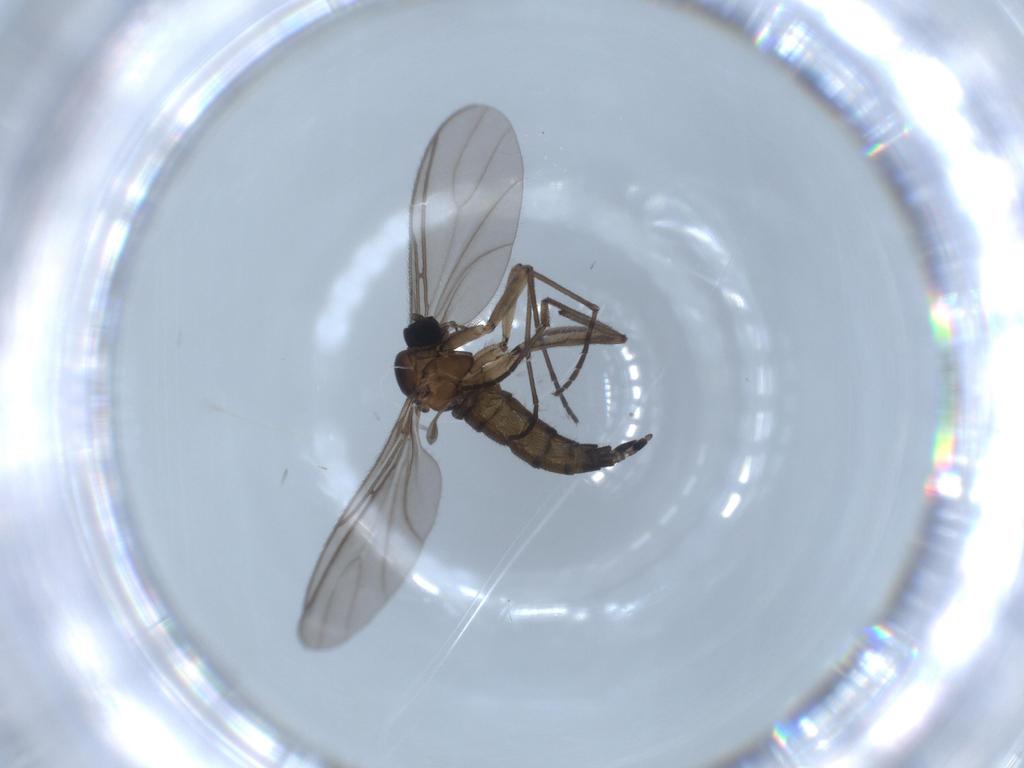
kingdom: Animalia
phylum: Arthropoda
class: Insecta
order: Diptera
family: Sciaridae
